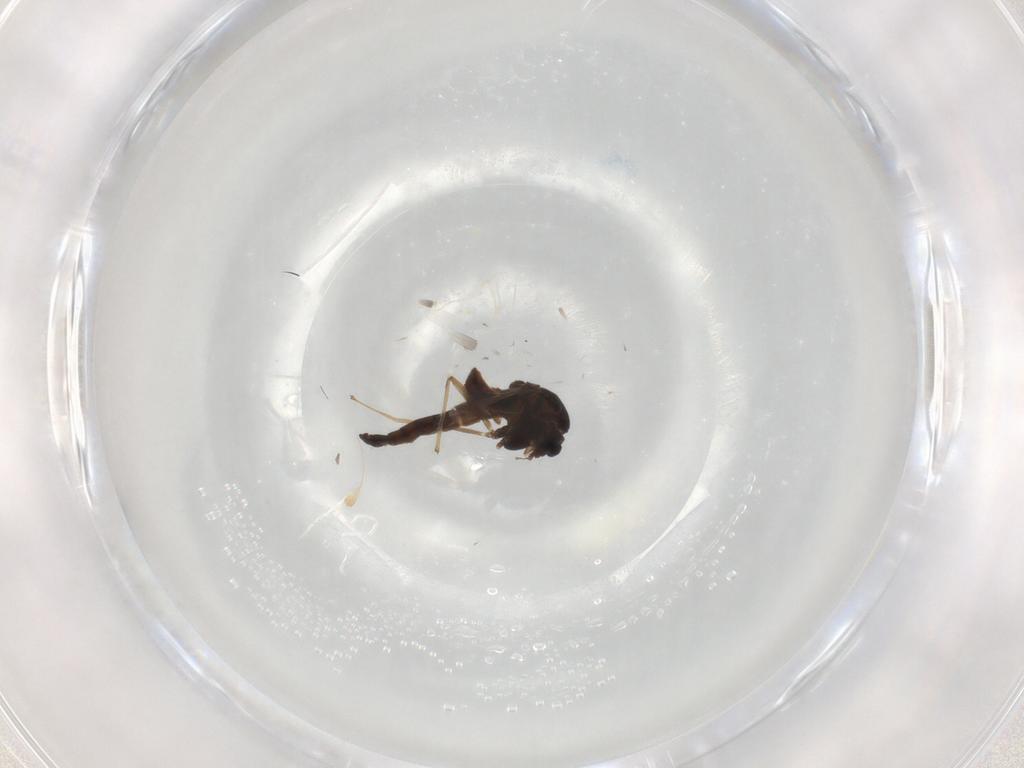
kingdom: Animalia
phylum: Arthropoda
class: Insecta
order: Diptera
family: Chironomidae
